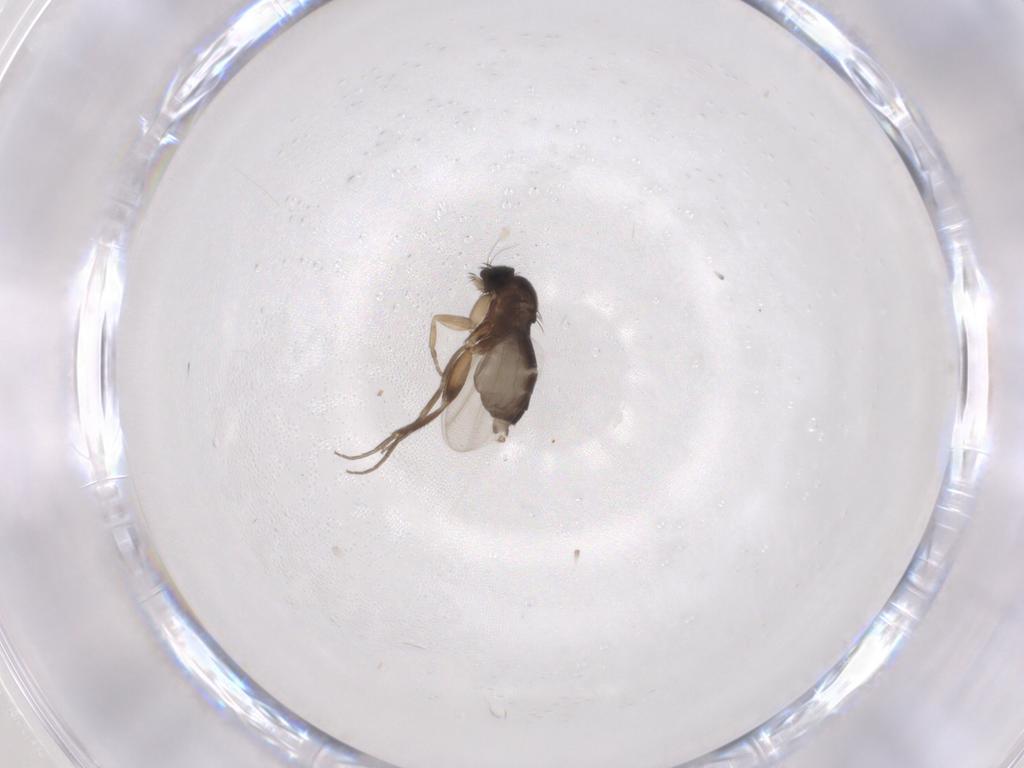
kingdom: Animalia
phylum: Arthropoda
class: Insecta
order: Diptera
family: Phoridae
